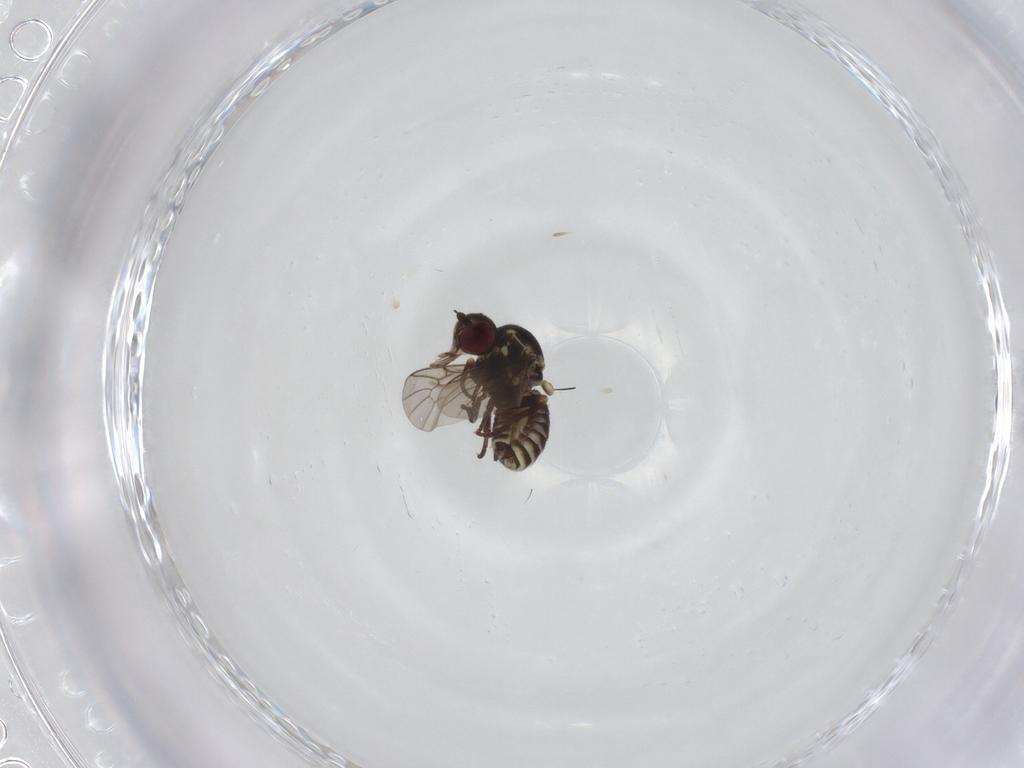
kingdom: Animalia
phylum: Arthropoda
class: Insecta
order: Diptera
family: Cecidomyiidae
